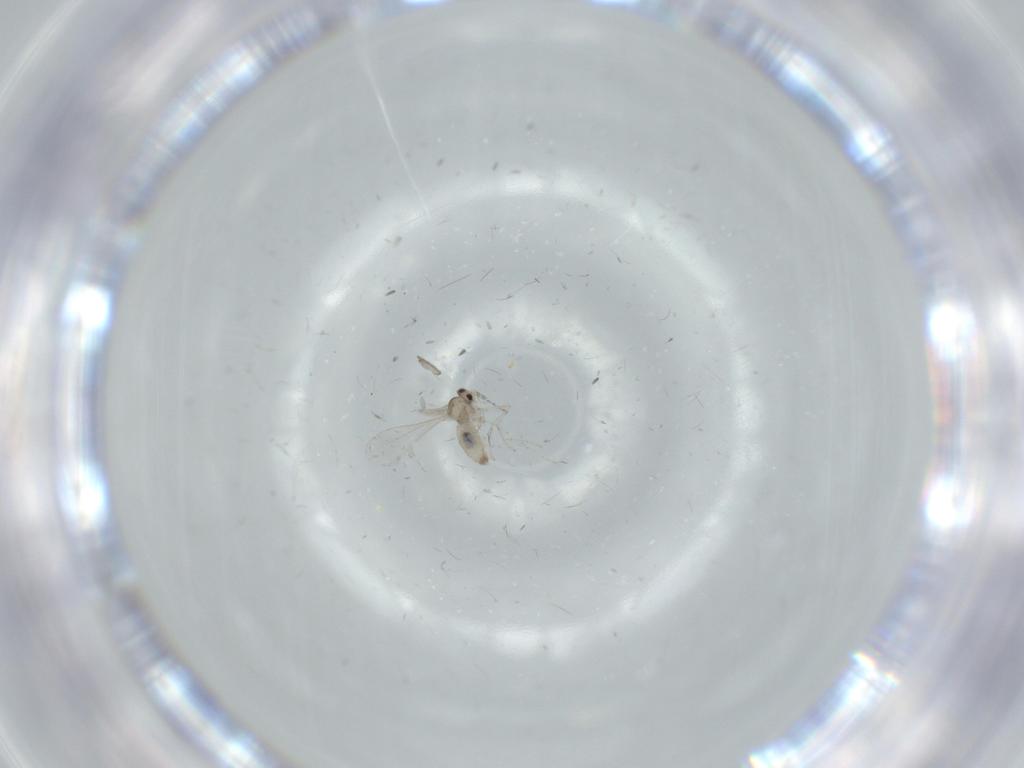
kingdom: Animalia
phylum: Arthropoda
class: Insecta
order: Diptera
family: Cecidomyiidae
